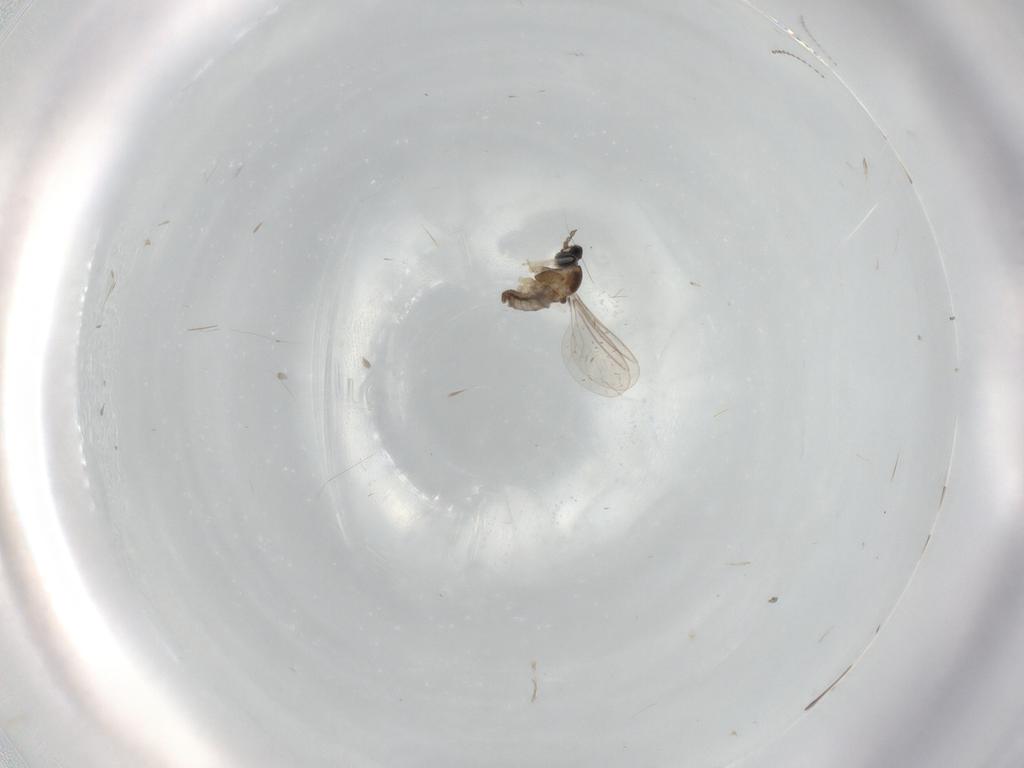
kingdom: Animalia
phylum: Arthropoda
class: Insecta
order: Diptera
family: Cecidomyiidae
